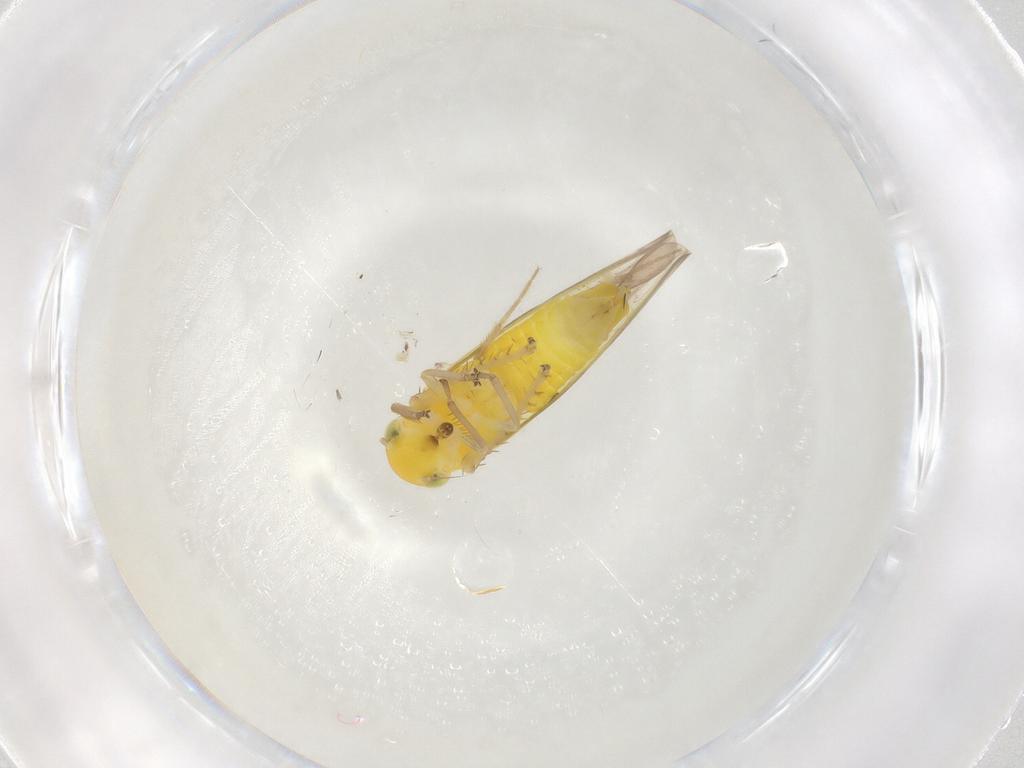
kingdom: Animalia
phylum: Arthropoda
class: Insecta
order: Hemiptera
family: Cicadellidae
